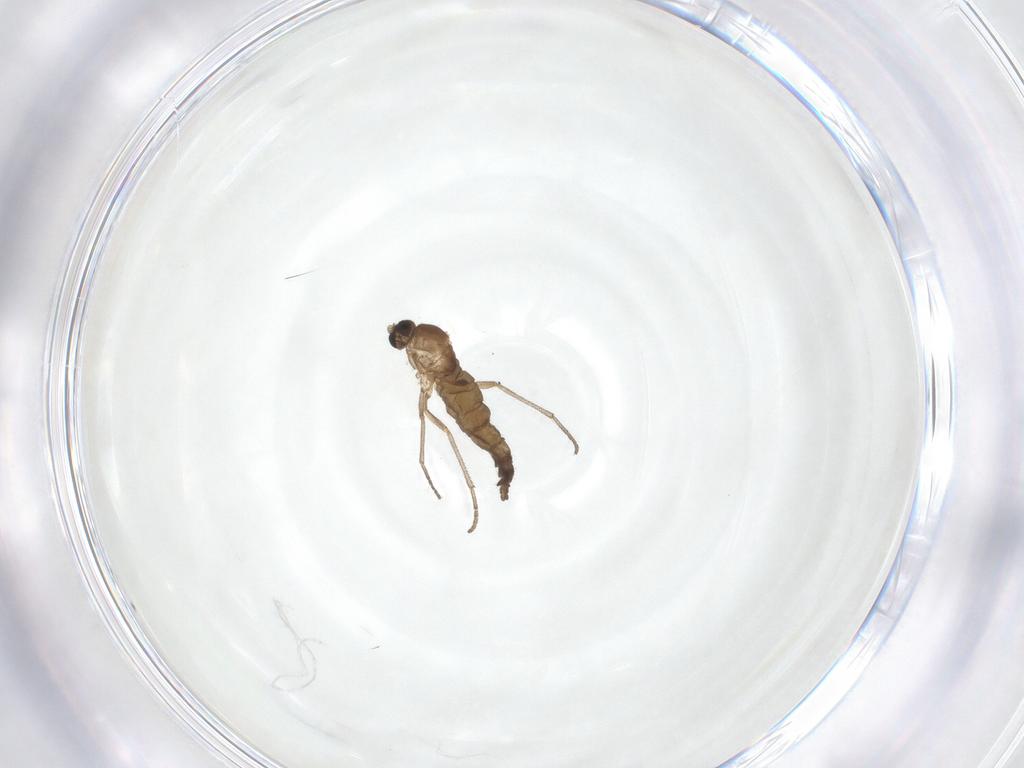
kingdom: Animalia
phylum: Arthropoda
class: Insecta
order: Diptera
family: Sciaridae
